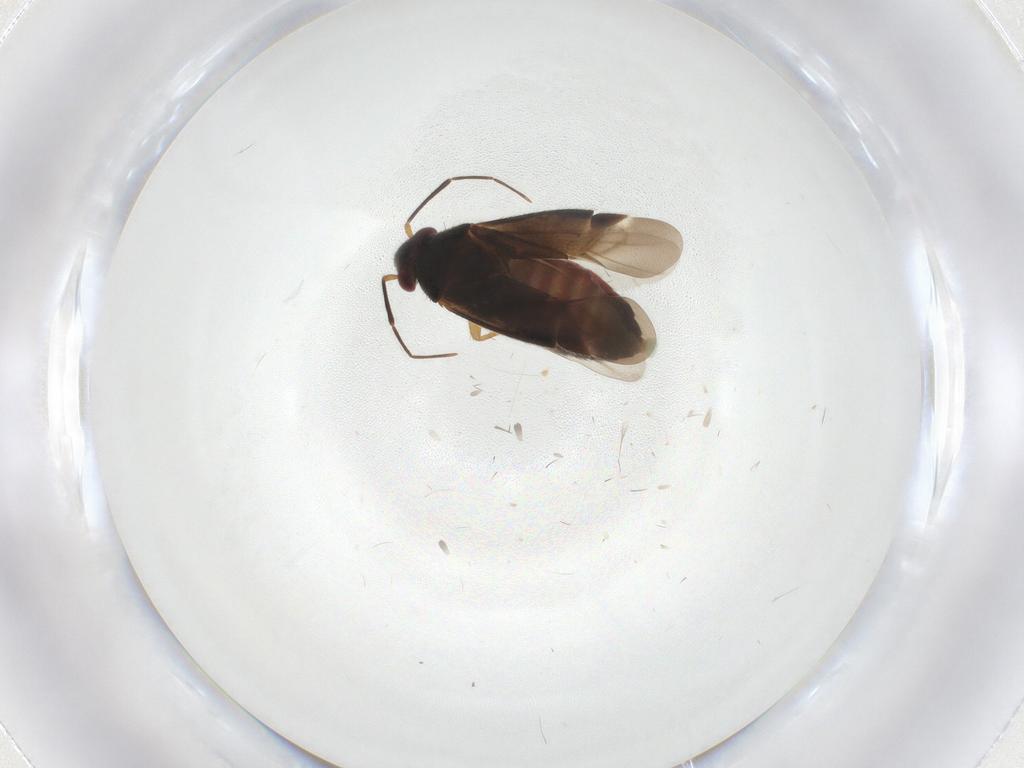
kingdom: Animalia
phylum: Arthropoda
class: Insecta
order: Hemiptera
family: Miridae
